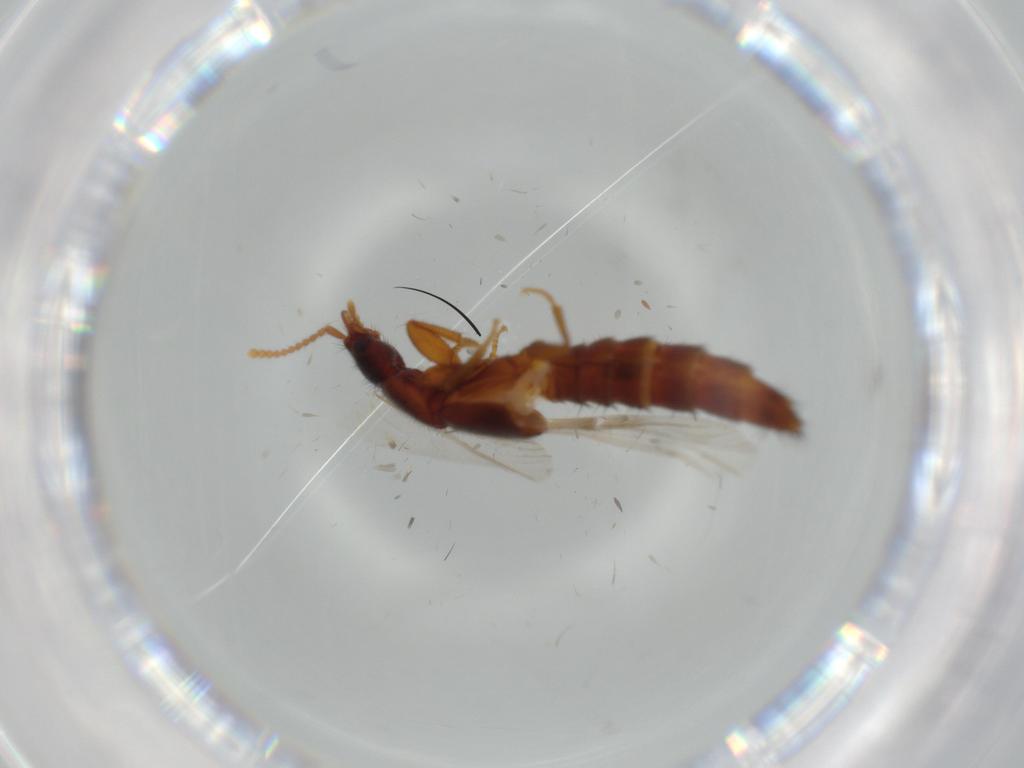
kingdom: Animalia
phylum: Arthropoda
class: Insecta
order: Coleoptera
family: Staphylinidae
